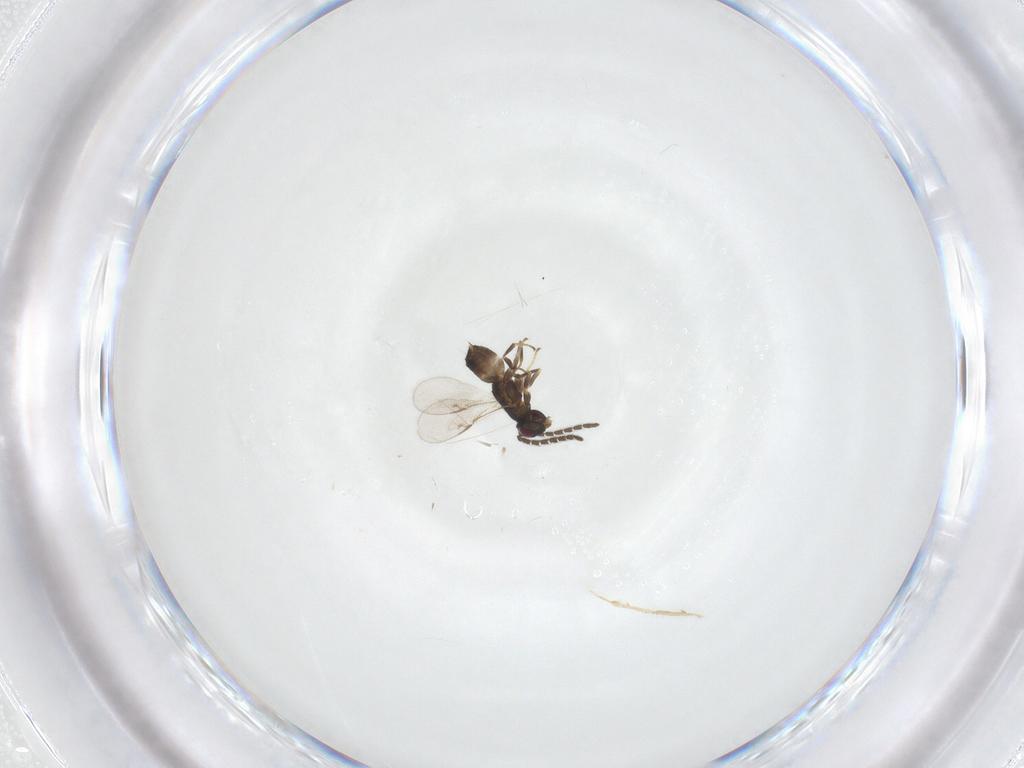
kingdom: Animalia
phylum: Arthropoda
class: Insecta
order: Hymenoptera
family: Encyrtidae
